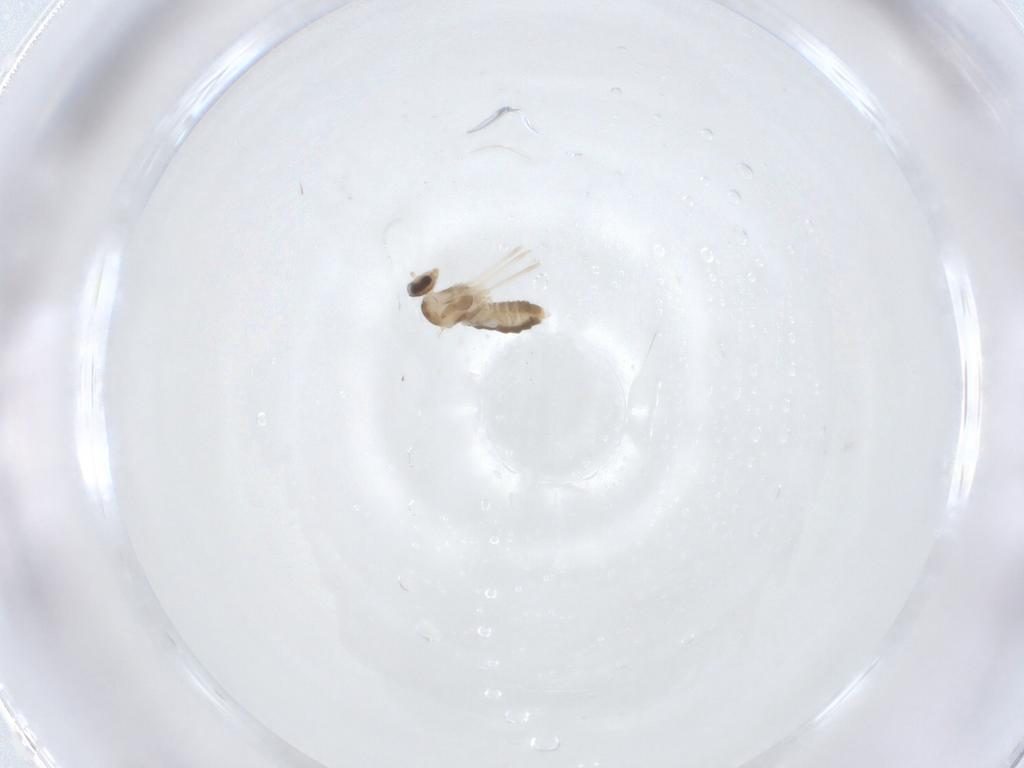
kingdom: Animalia
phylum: Arthropoda
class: Insecta
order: Diptera
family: Cecidomyiidae
